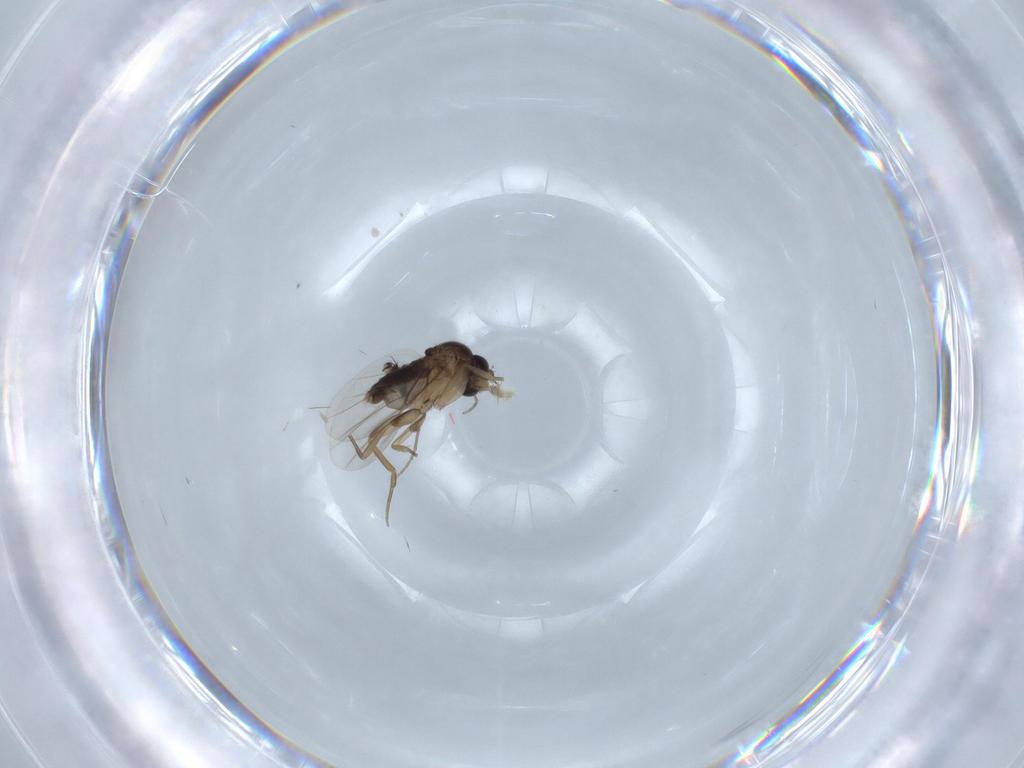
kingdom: Animalia
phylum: Arthropoda
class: Insecta
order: Diptera
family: Phoridae
